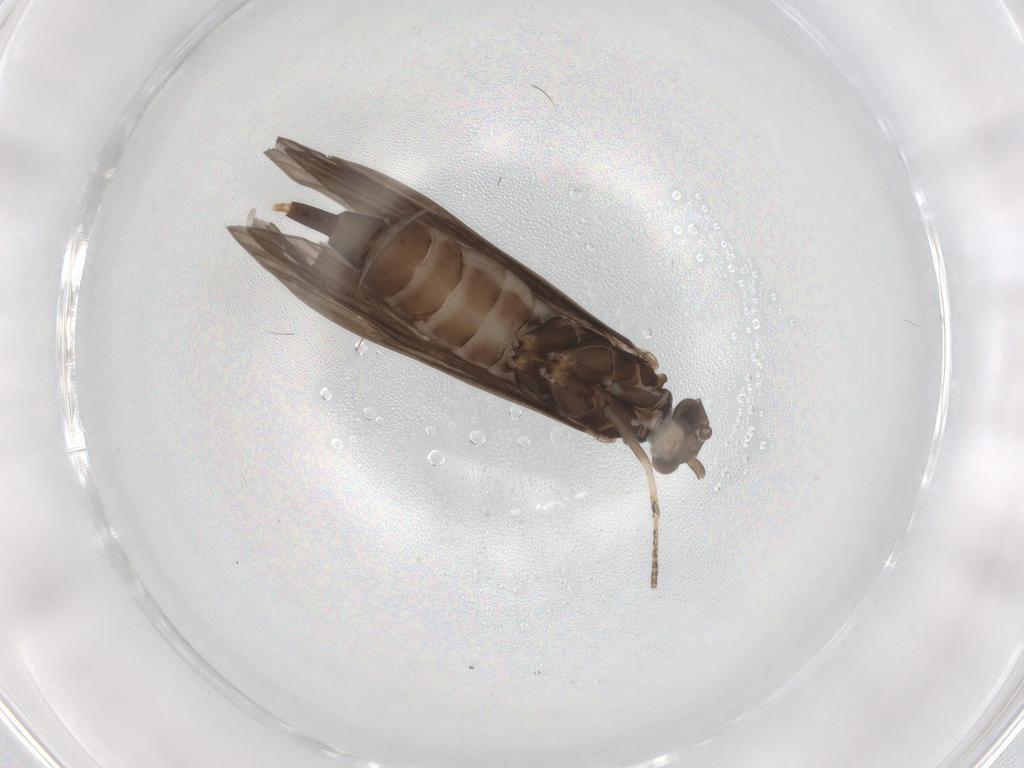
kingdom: Animalia
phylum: Arthropoda
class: Insecta
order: Trichoptera
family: Xiphocentronidae
